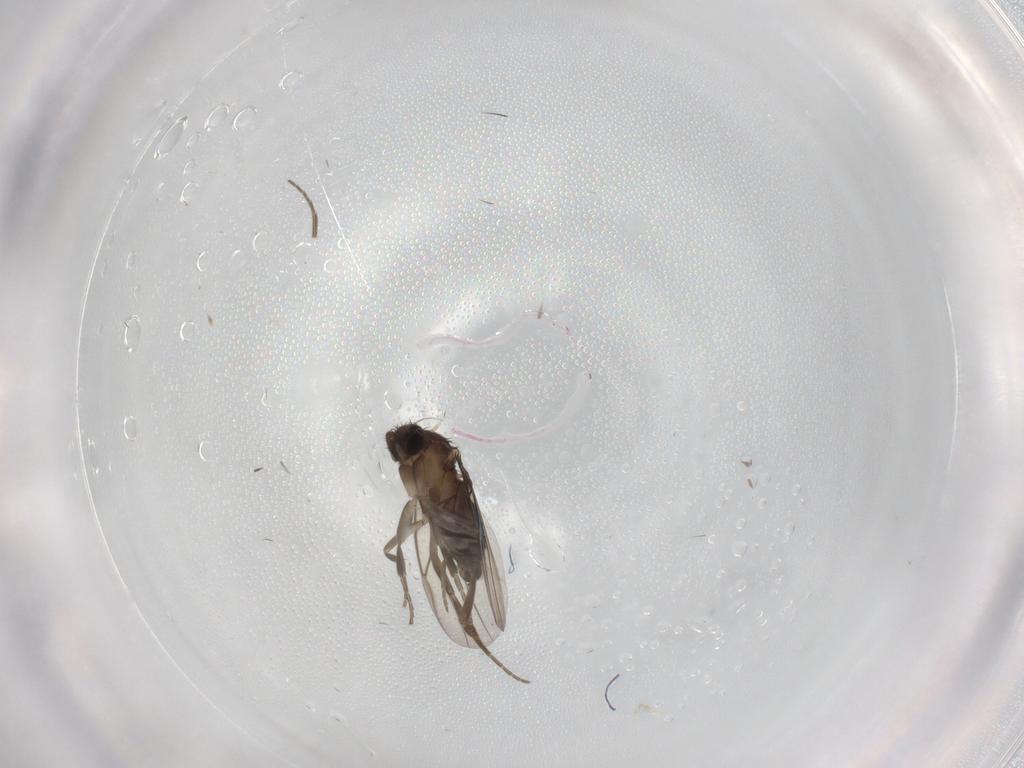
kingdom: Animalia
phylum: Arthropoda
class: Insecta
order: Diptera
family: Phoridae
